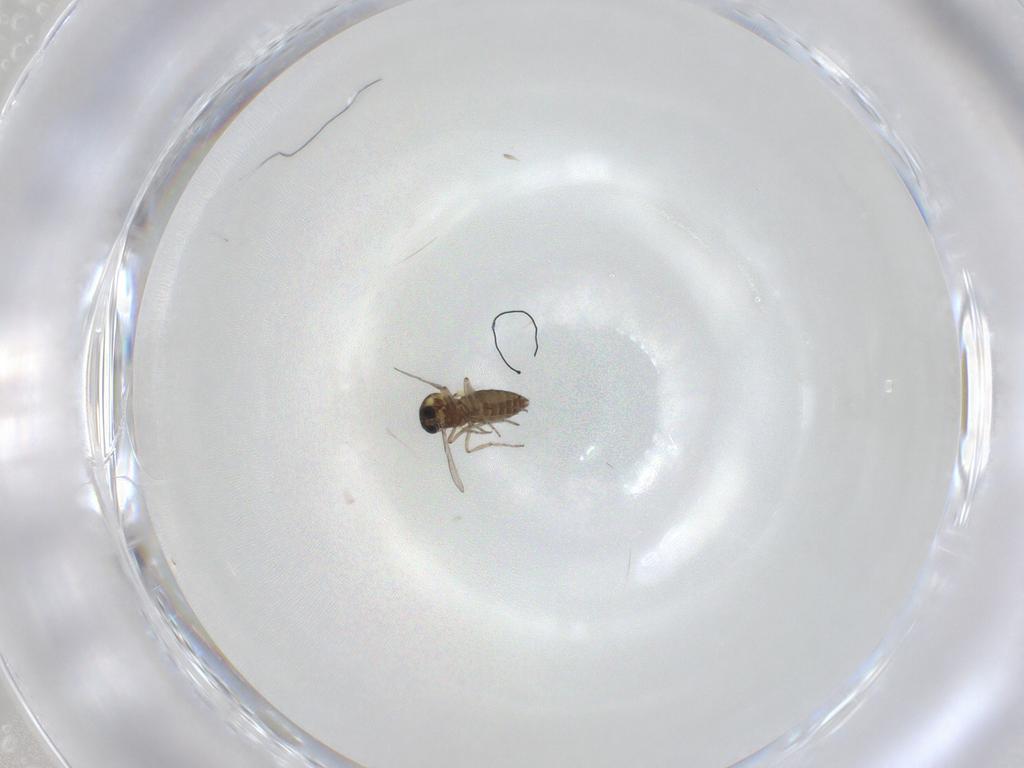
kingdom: Animalia
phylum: Arthropoda
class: Insecta
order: Diptera
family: Ceratopogonidae
